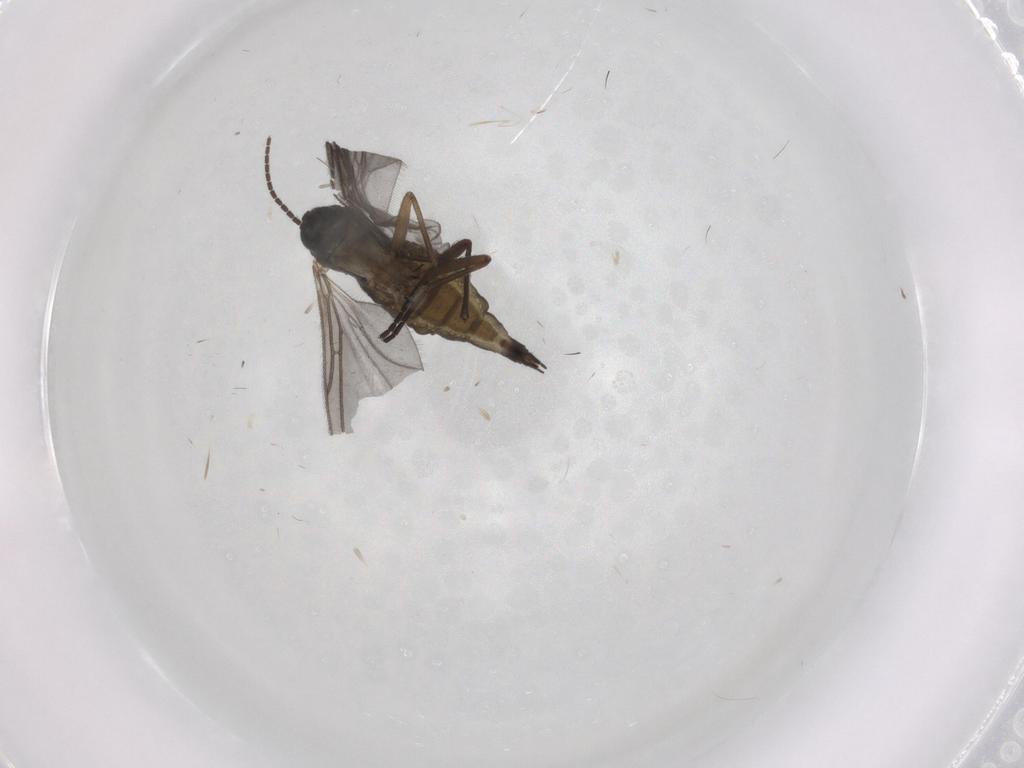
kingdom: Animalia
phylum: Arthropoda
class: Insecta
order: Diptera
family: Sciaridae
